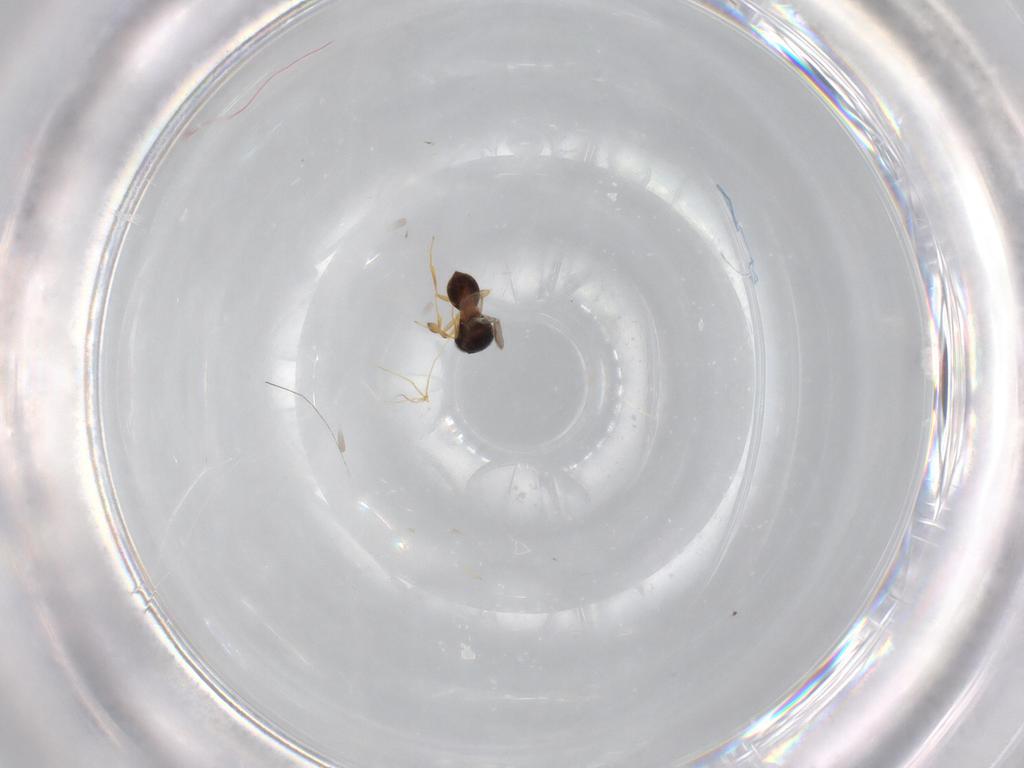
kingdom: Animalia
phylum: Arthropoda
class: Insecta
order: Hymenoptera
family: Scelionidae
